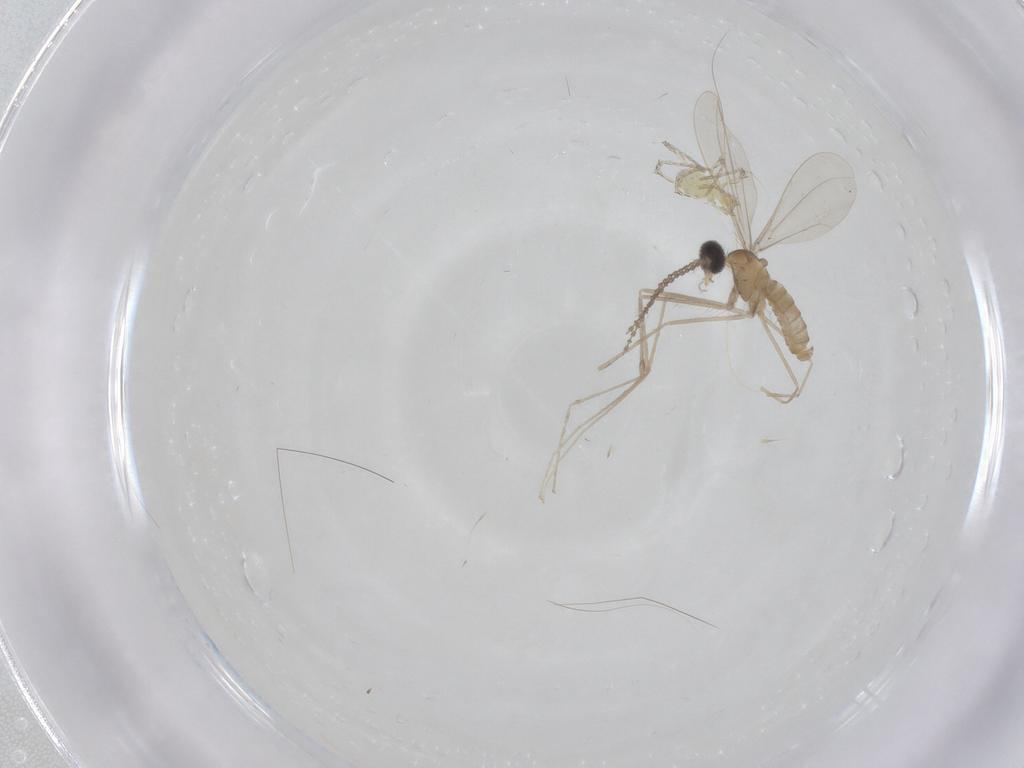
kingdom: Animalia
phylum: Arthropoda
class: Insecta
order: Diptera
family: Cecidomyiidae
